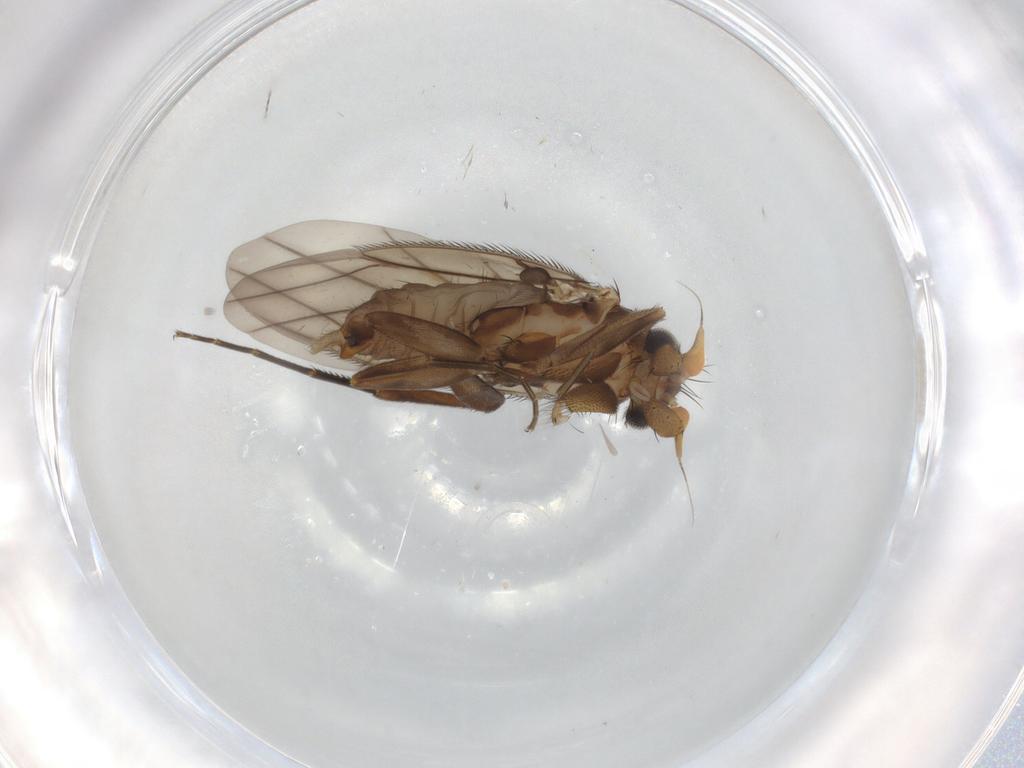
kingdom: Animalia
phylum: Arthropoda
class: Insecta
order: Diptera
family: Phoridae
